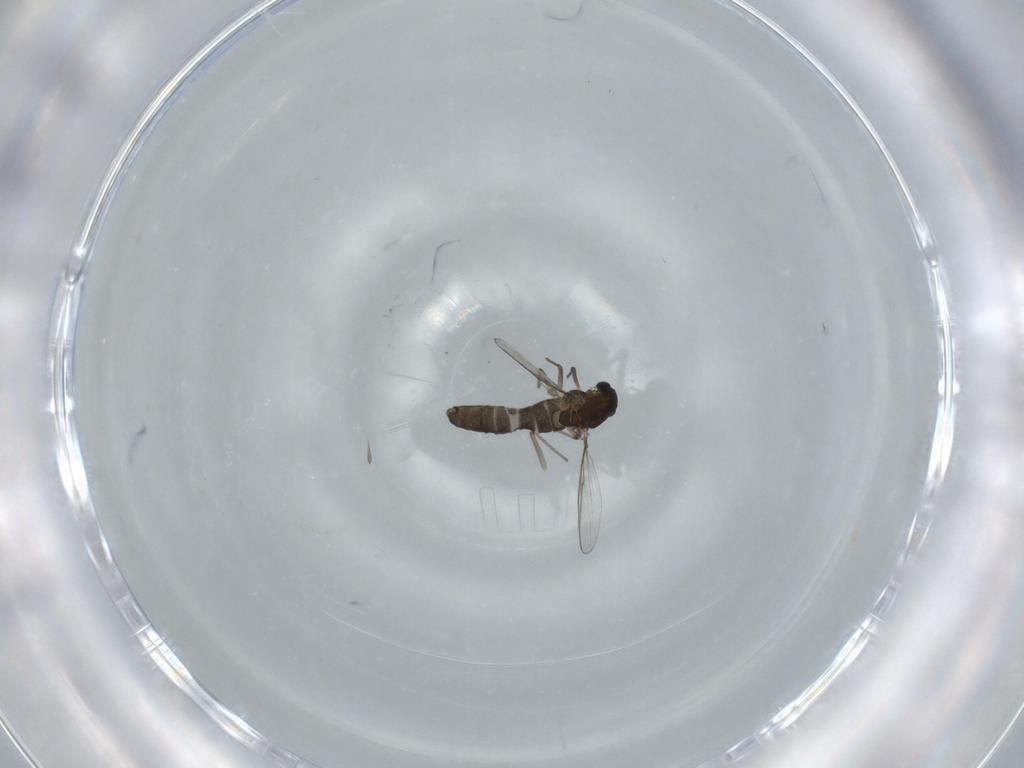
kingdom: Animalia
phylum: Arthropoda
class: Insecta
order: Diptera
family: Chironomidae
